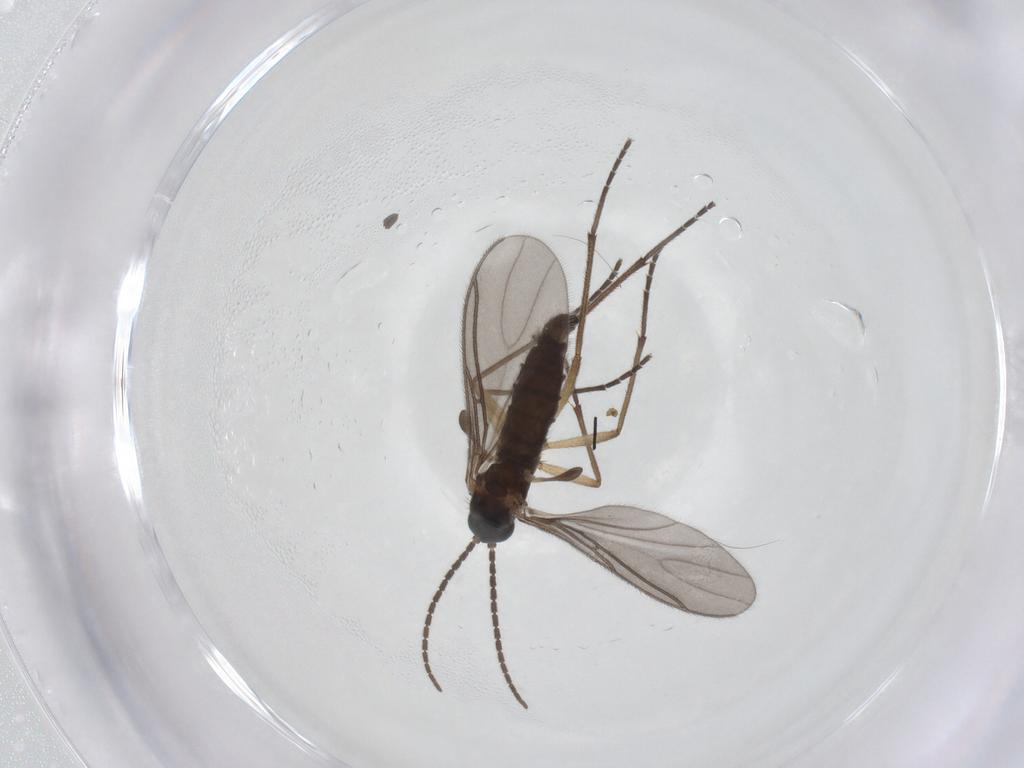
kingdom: Animalia
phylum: Arthropoda
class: Insecta
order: Diptera
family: Sciaridae
